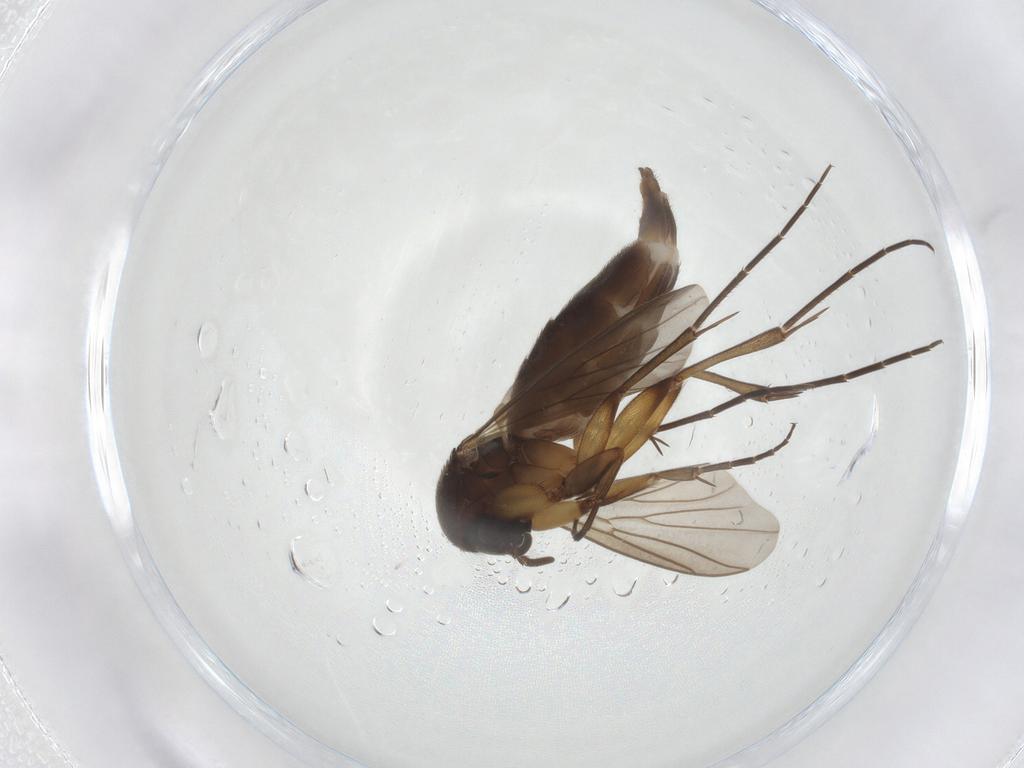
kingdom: Animalia
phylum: Arthropoda
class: Insecta
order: Diptera
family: Mycetophilidae
